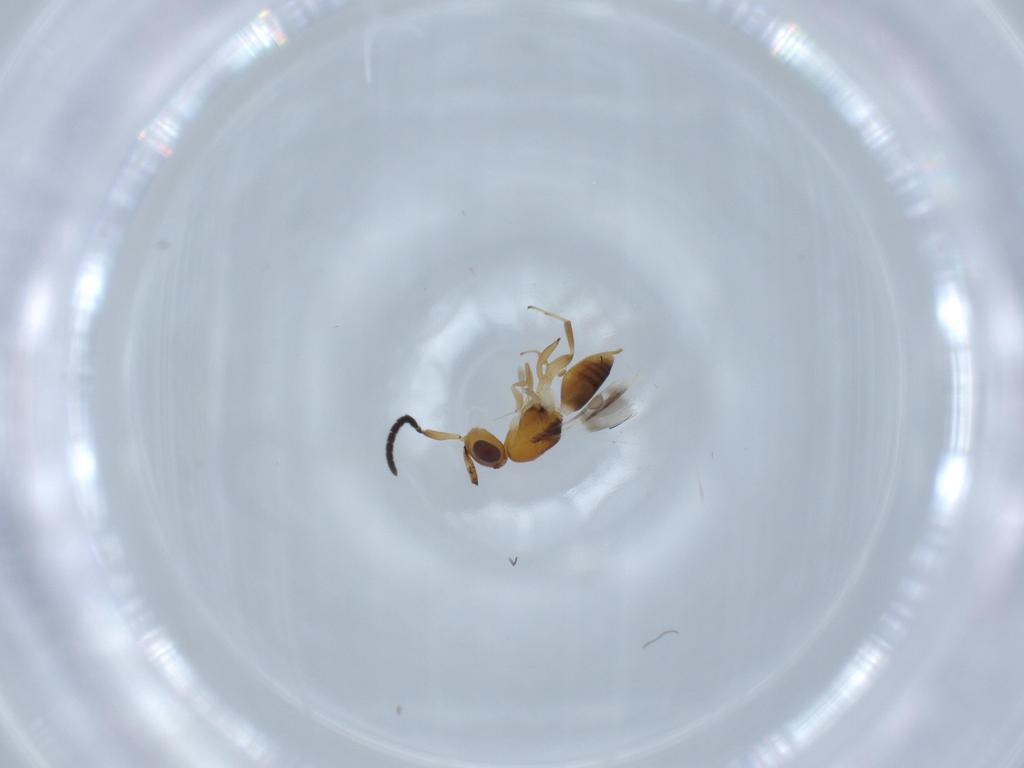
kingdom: Animalia
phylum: Arthropoda
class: Insecta
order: Hymenoptera
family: Megaspilidae
